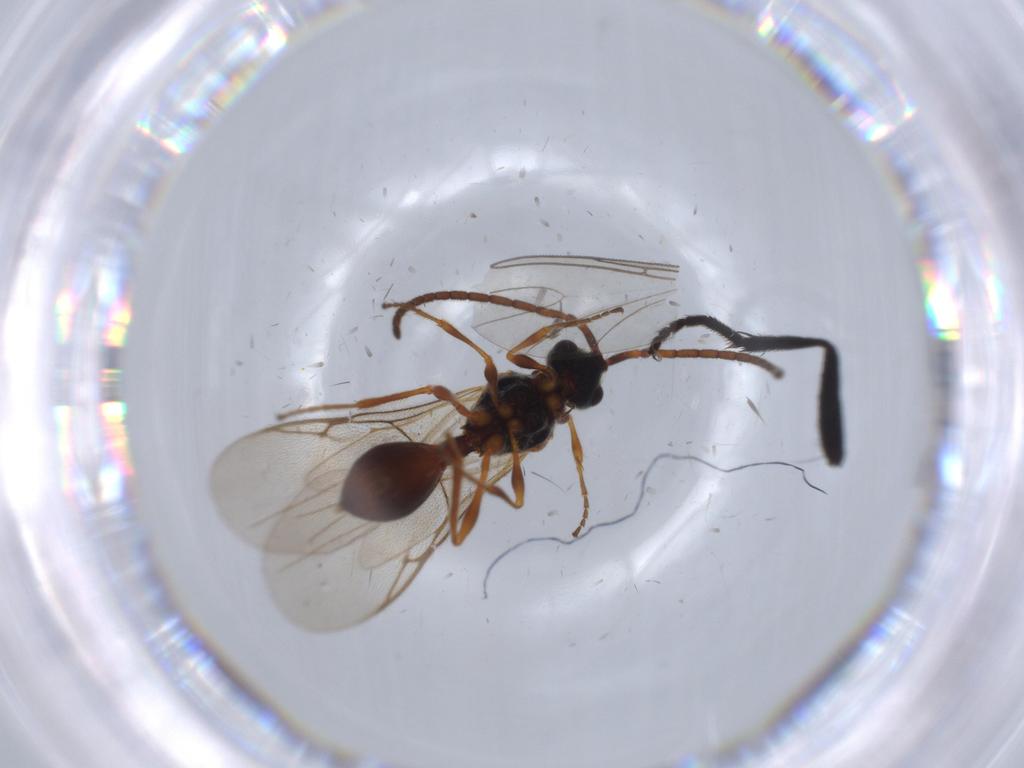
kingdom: Animalia
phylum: Arthropoda
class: Insecta
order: Hymenoptera
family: Torymidae
